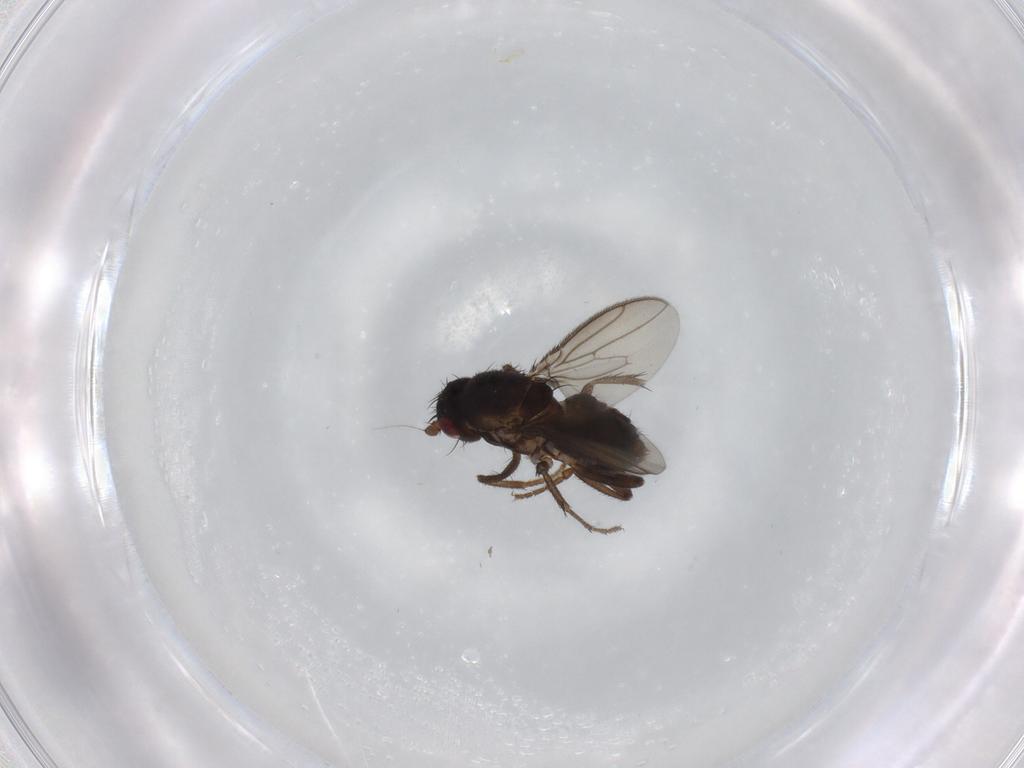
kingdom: Animalia
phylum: Arthropoda
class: Insecta
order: Diptera
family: Sphaeroceridae
